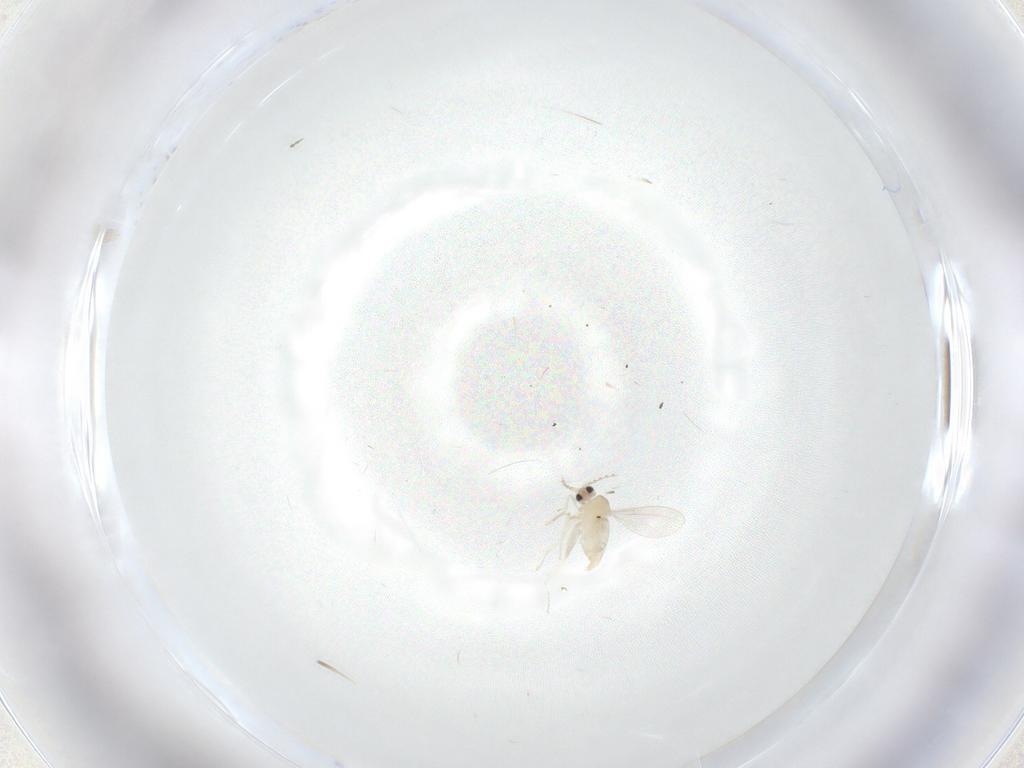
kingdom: Animalia
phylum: Arthropoda
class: Insecta
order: Diptera
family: Cecidomyiidae
